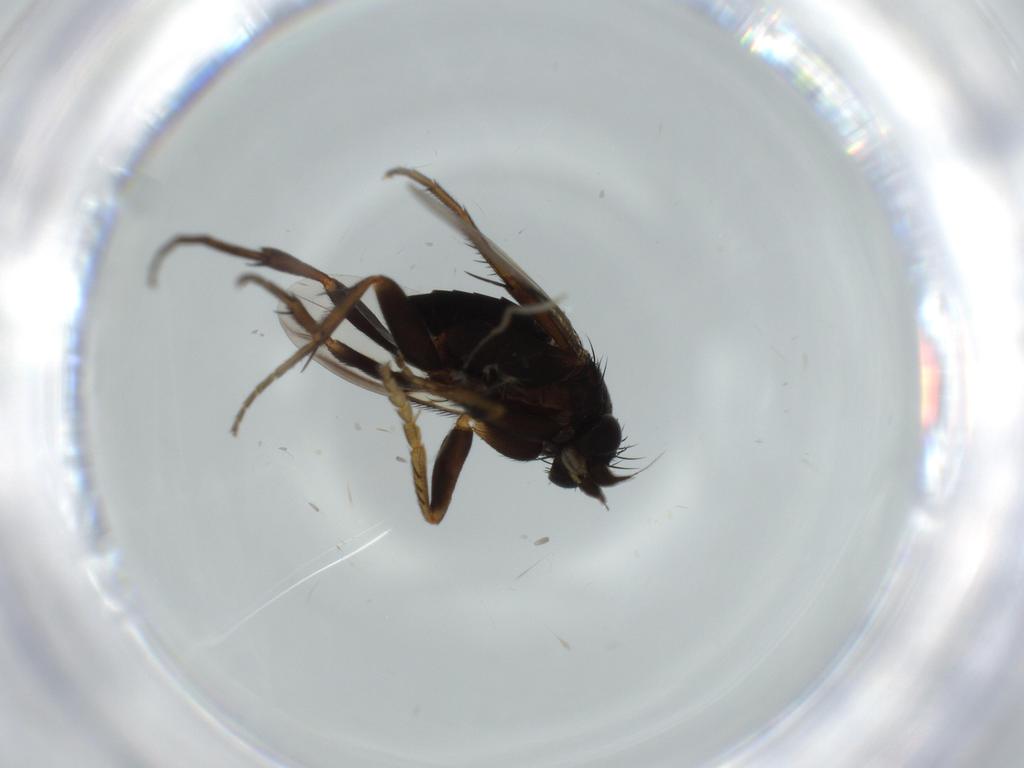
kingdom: Animalia
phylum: Arthropoda
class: Insecta
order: Diptera
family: Phoridae
